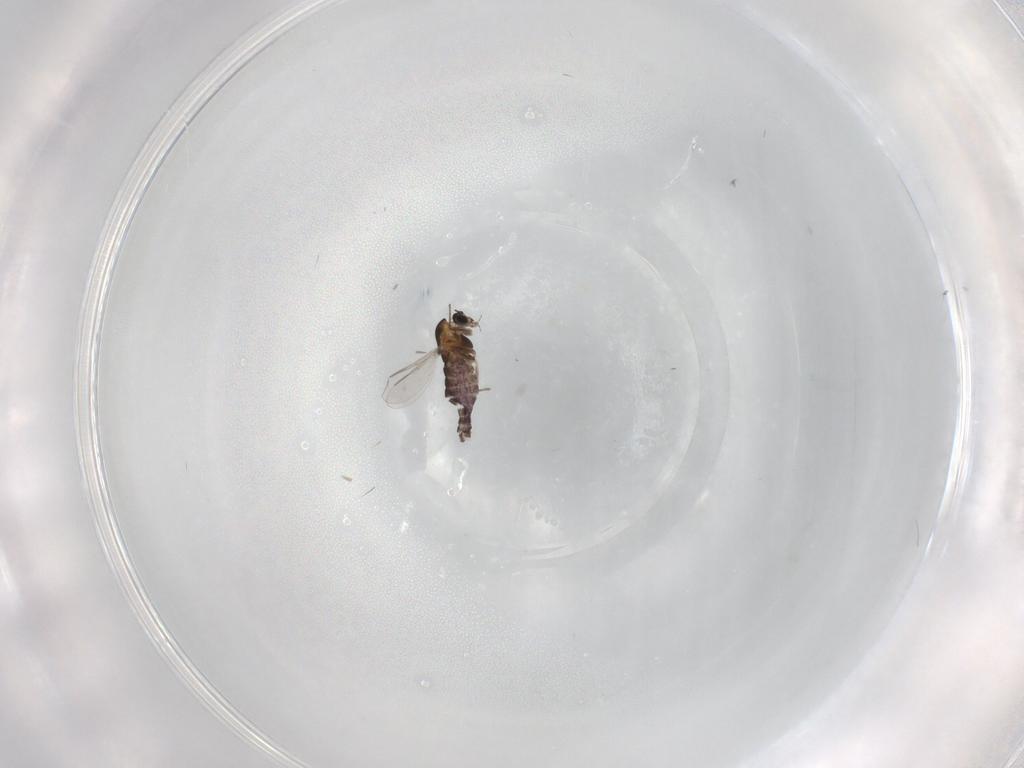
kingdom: Animalia
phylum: Arthropoda
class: Insecta
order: Diptera
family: Chironomidae
